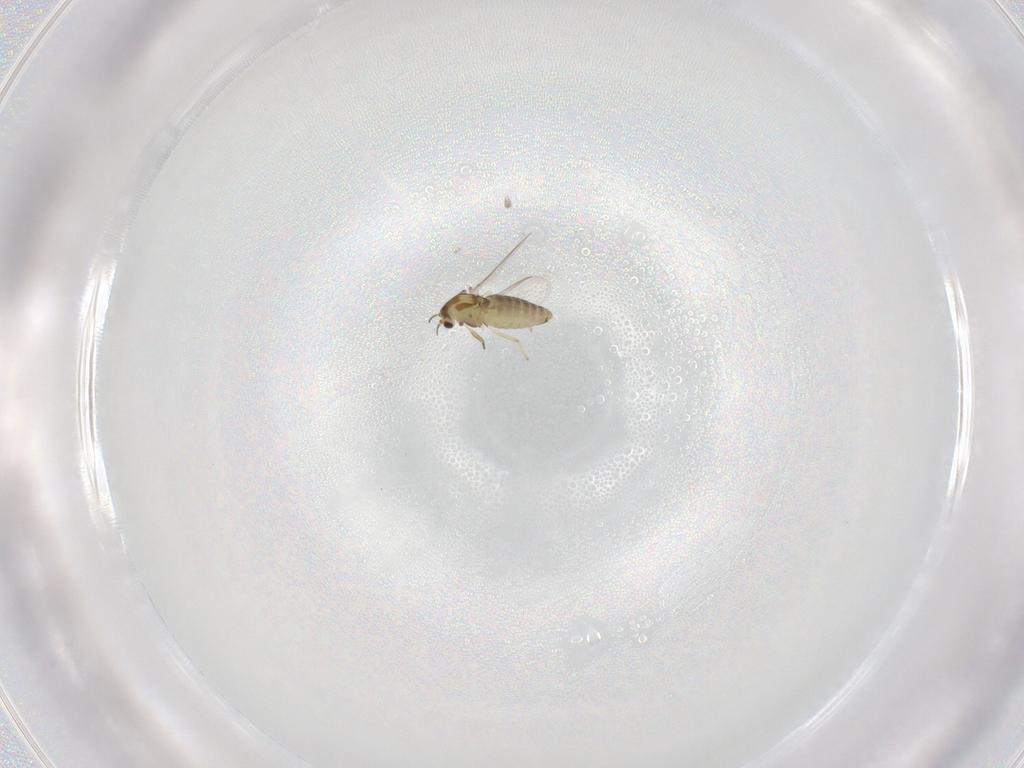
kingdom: Animalia
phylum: Arthropoda
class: Insecta
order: Diptera
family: Chironomidae
